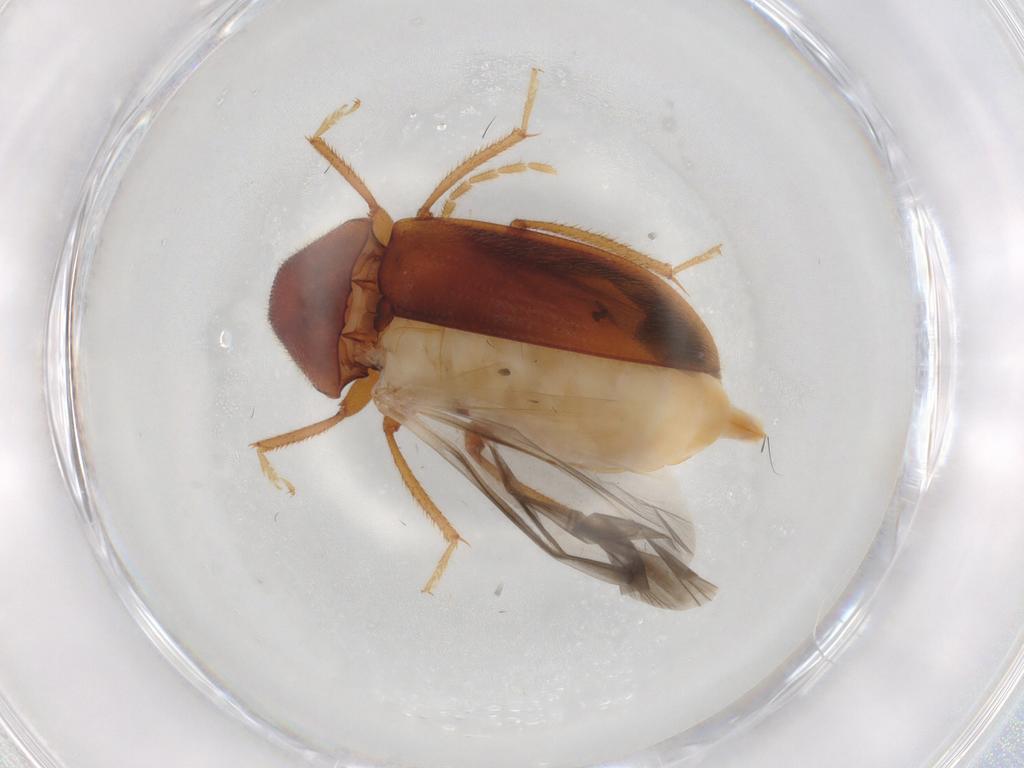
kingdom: Animalia
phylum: Arthropoda
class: Insecta
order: Coleoptera
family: Ptilodactylidae
